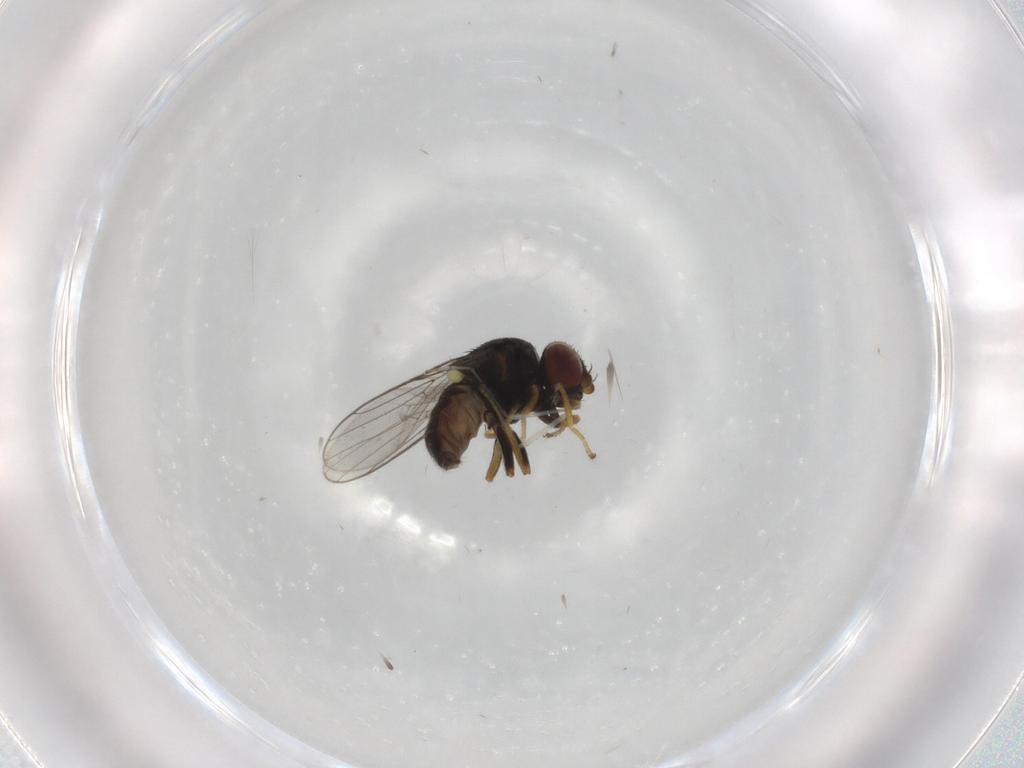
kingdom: Animalia
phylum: Arthropoda
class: Insecta
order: Diptera
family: Chloropidae
